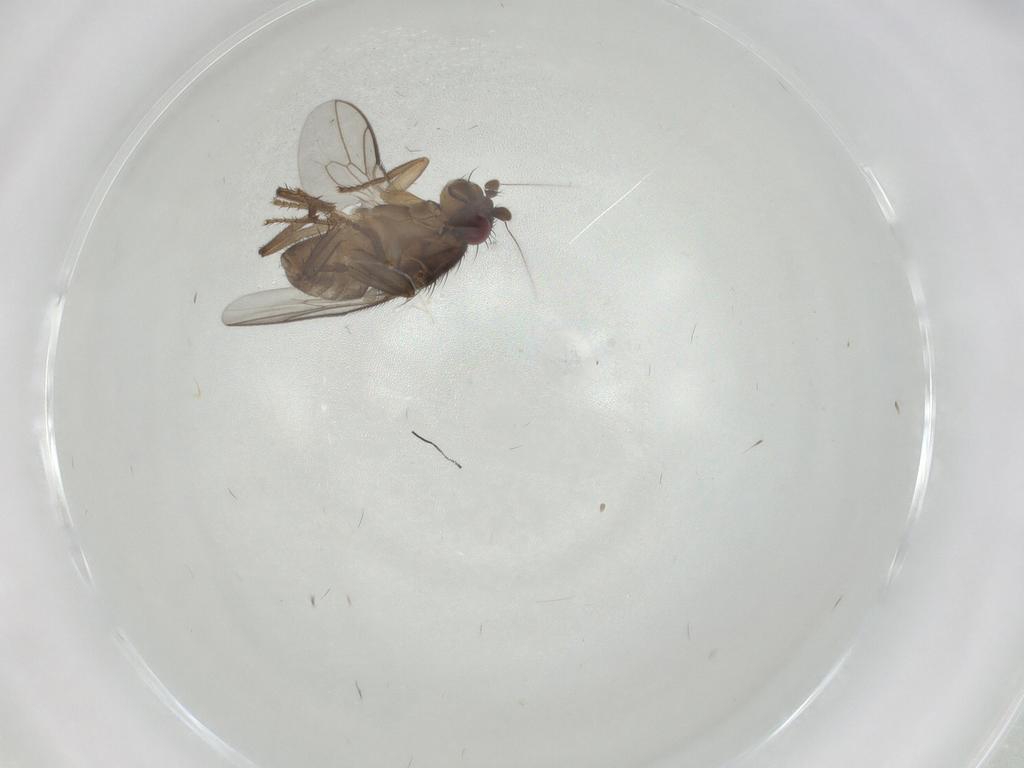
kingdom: Animalia
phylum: Arthropoda
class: Insecta
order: Diptera
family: Sphaeroceridae
